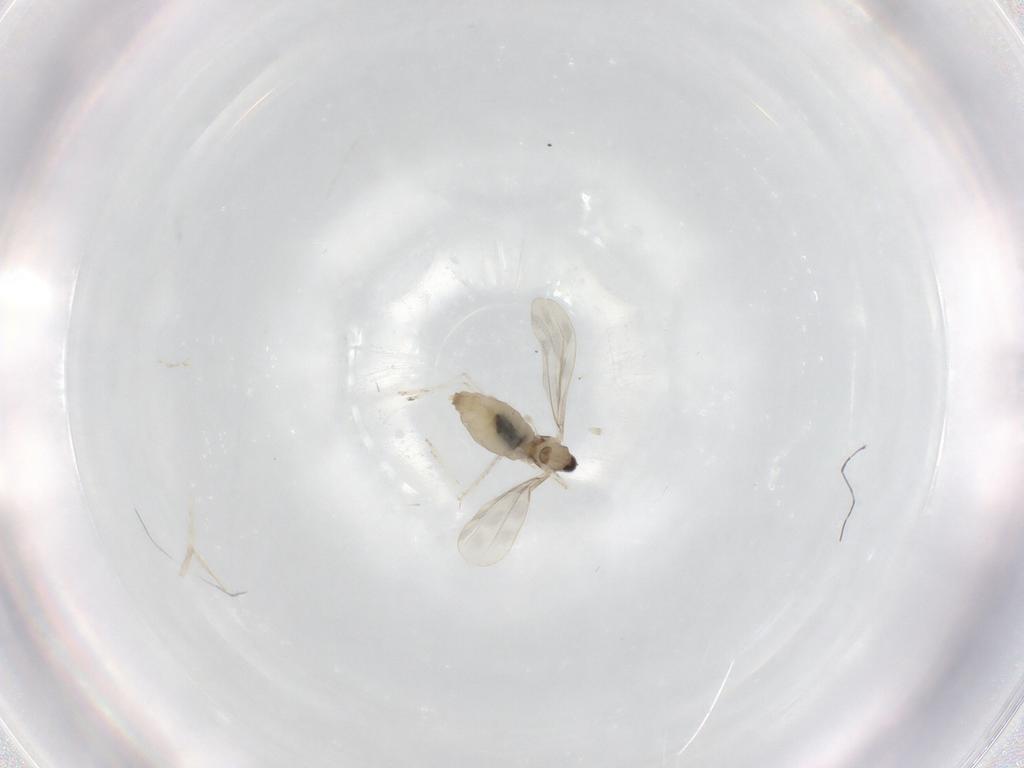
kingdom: Animalia
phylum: Arthropoda
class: Insecta
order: Diptera
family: Cecidomyiidae
